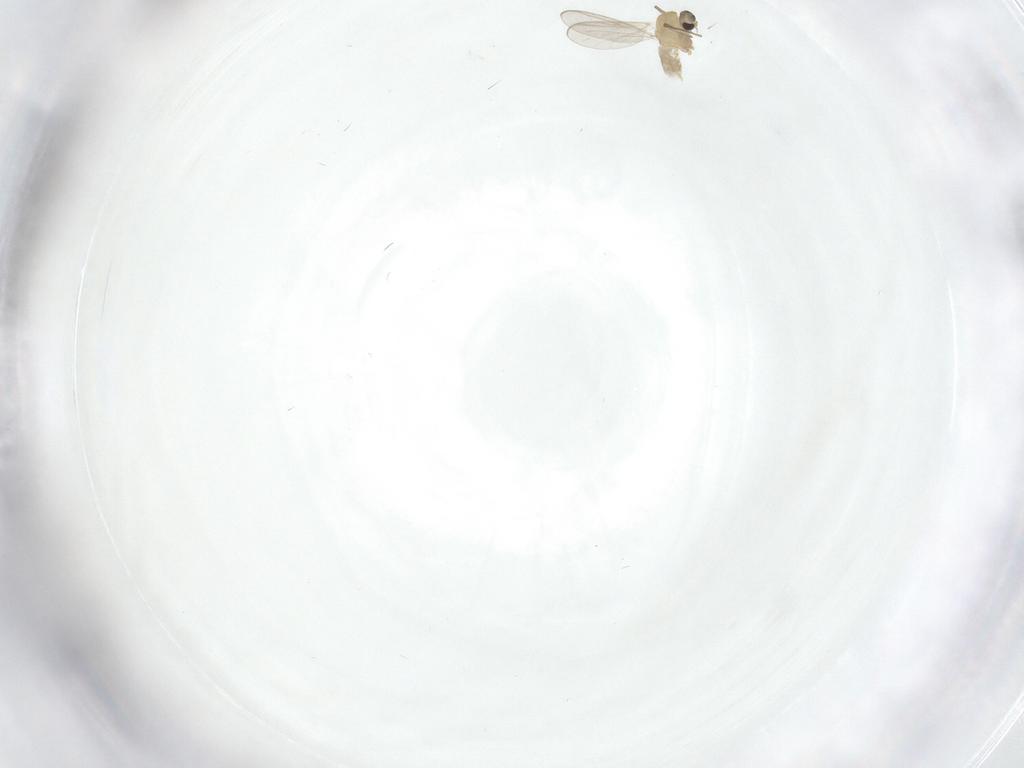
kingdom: Animalia
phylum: Arthropoda
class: Insecta
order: Diptera
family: Chironomidae
